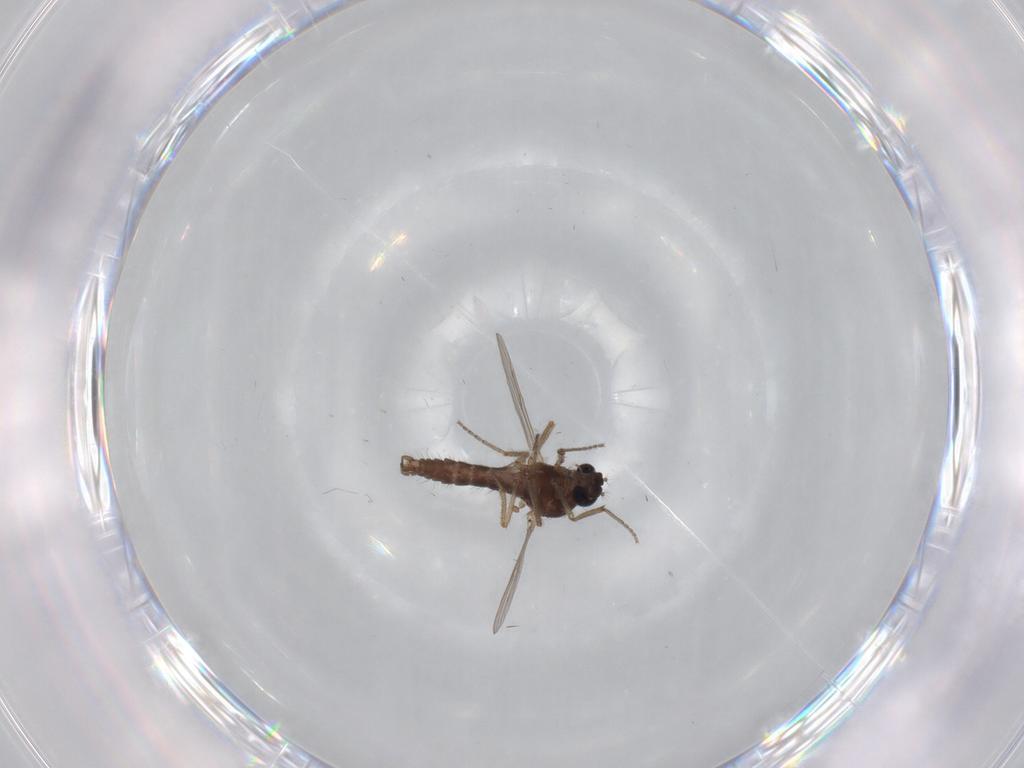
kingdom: Animalia
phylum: Arthropoda
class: Insecta
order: Diptera
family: Ceratopogonidae
